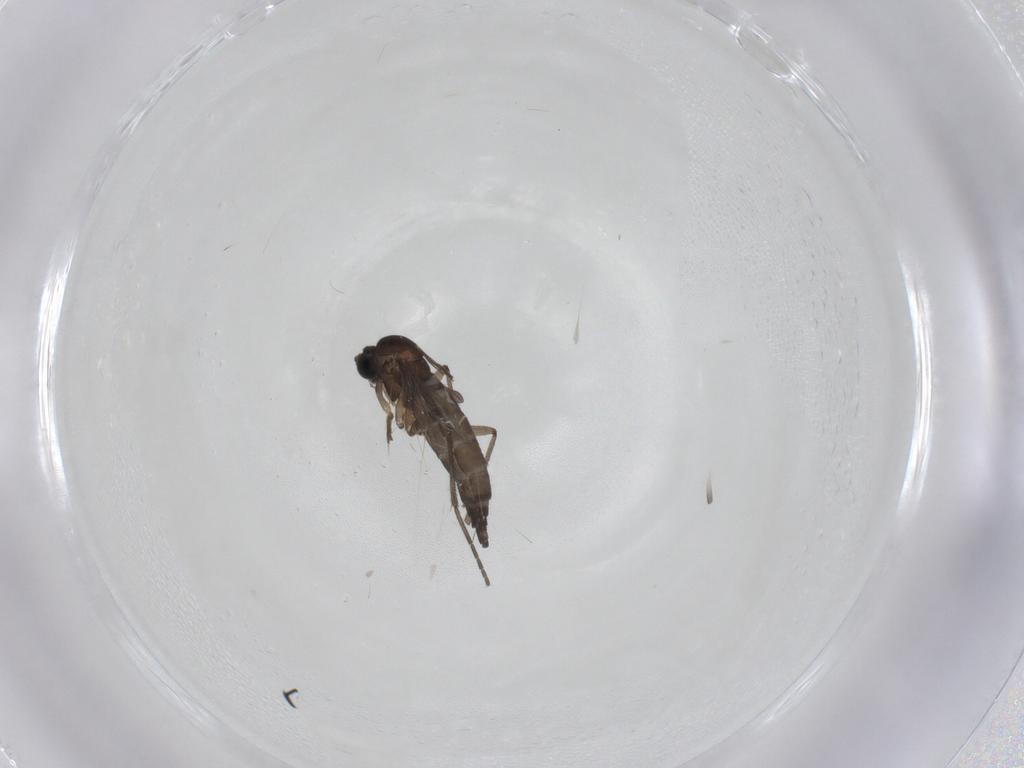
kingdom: Animalia
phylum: Arthropoda
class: Insecta
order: Diptera
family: Sciaridae
